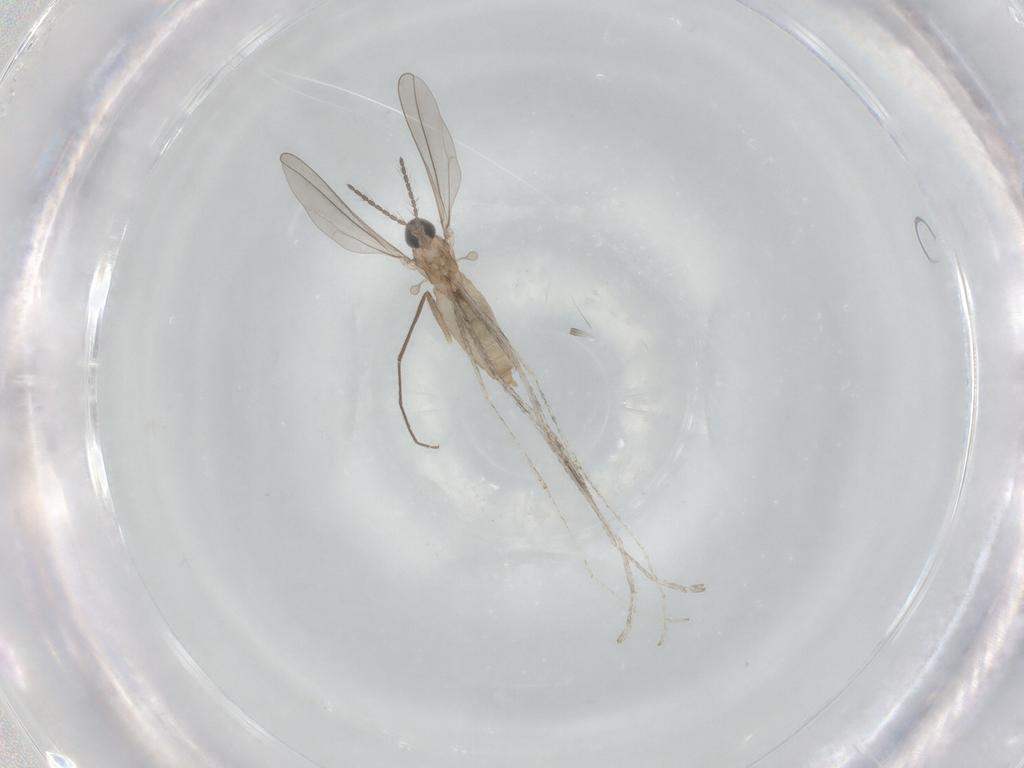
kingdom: Animalia
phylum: Arthropoda
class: Insecta
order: Diptera
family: Cecidomyiidae
